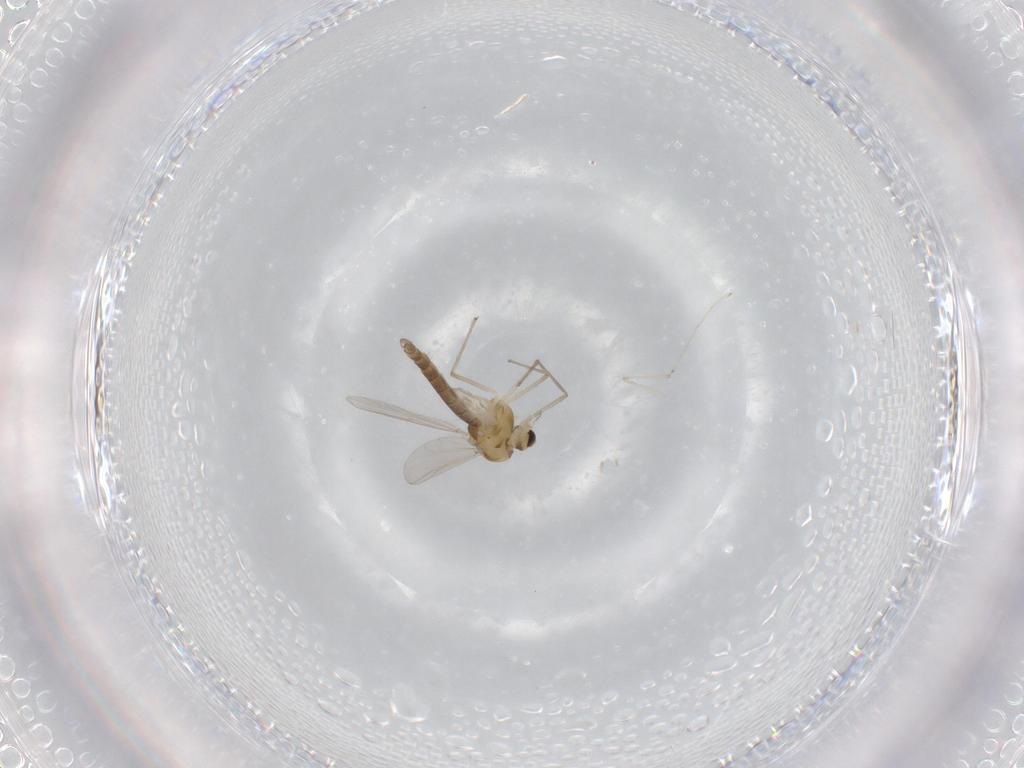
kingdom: Animalia
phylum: Arthropoda
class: Insecta
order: Diptera
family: Chironomidae
